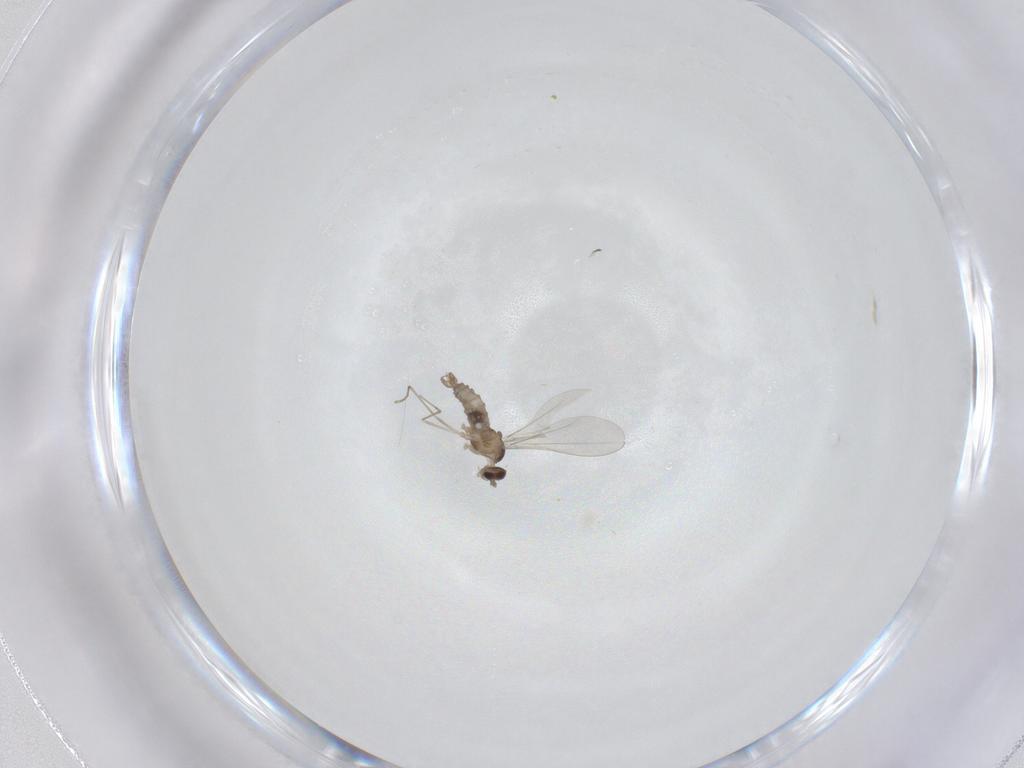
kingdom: Animalia
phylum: Arthropoda
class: Insecta
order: Diptera
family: Cecidomyiidae
